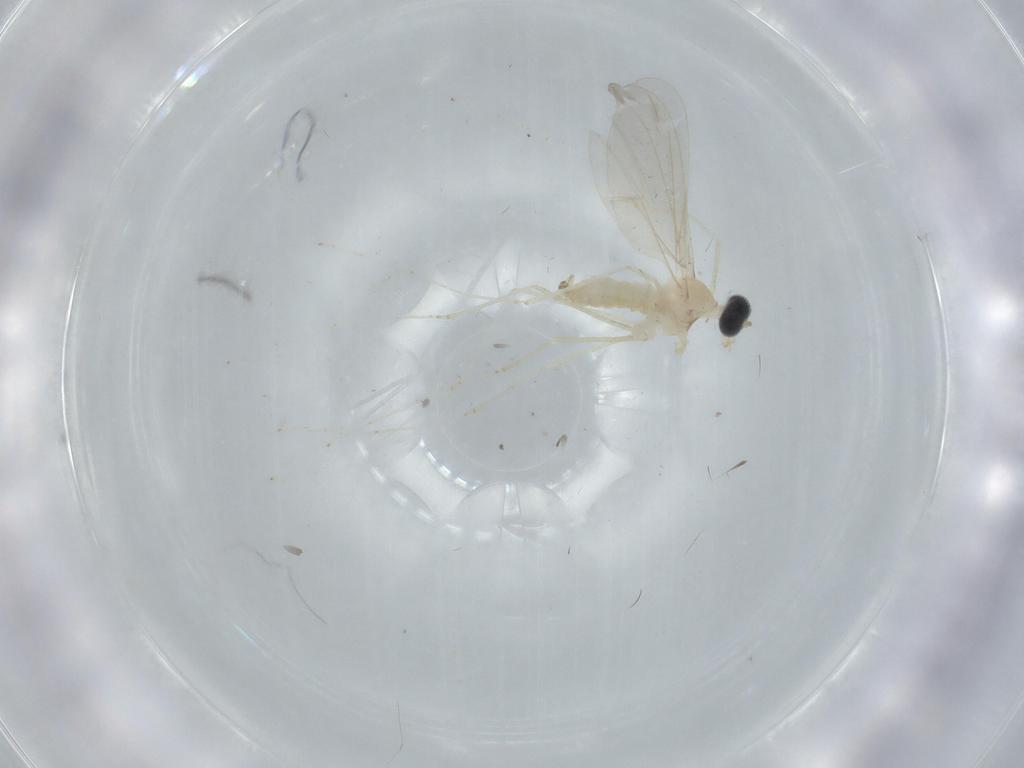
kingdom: Animalia
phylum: Arthropoda
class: Insecta
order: Diptera
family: Cecidomyiidae
